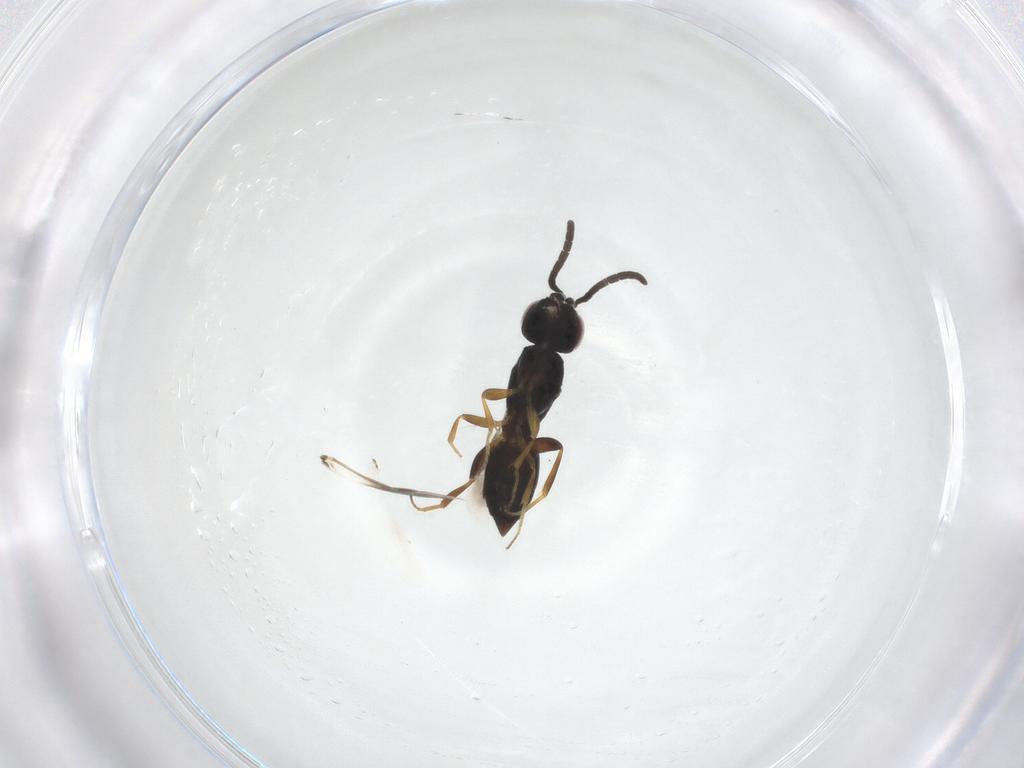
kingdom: Animalia
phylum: Arthropoda
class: Insecta
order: Hymenoptera
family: Megaspilidae
